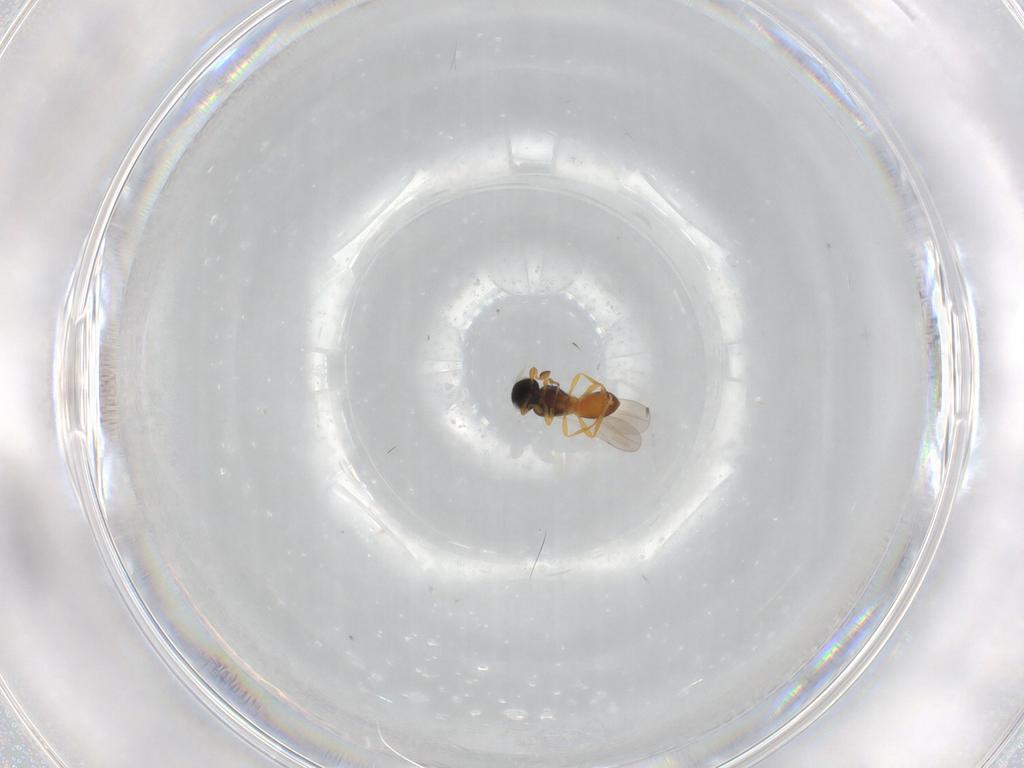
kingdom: Animalia
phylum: Arthropoda
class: Insecta
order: Hymenoptera
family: Platygastridae
